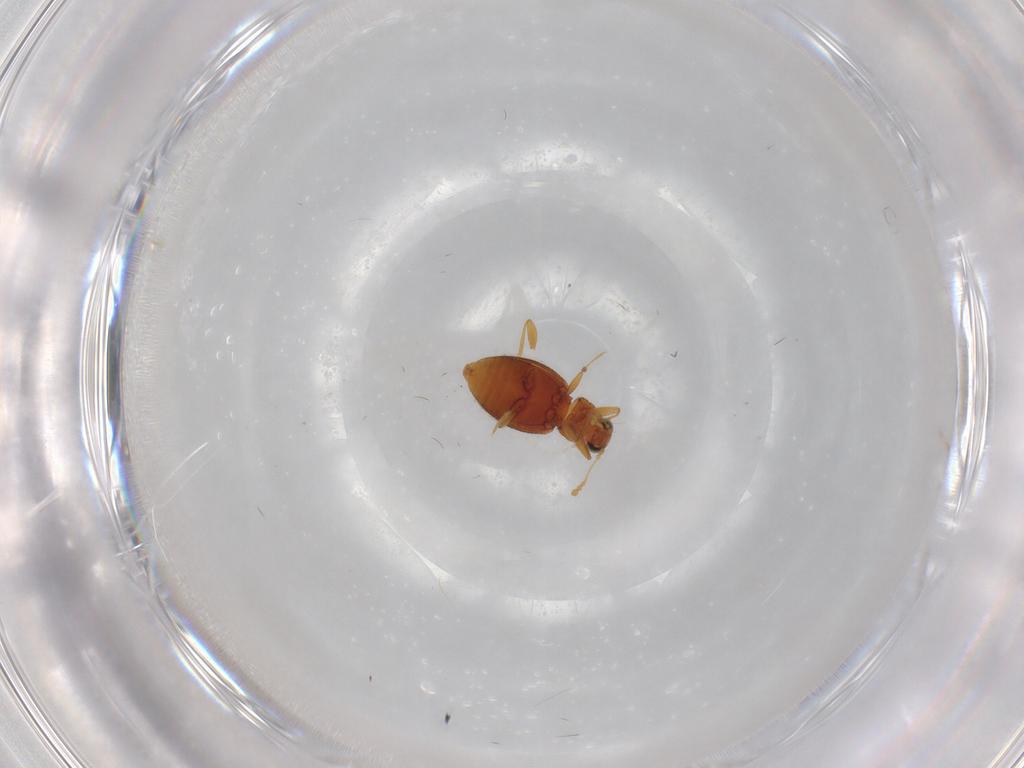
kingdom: Animalia
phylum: Arthropoda
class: Insecta
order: Coleoptera
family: Latridiidae
